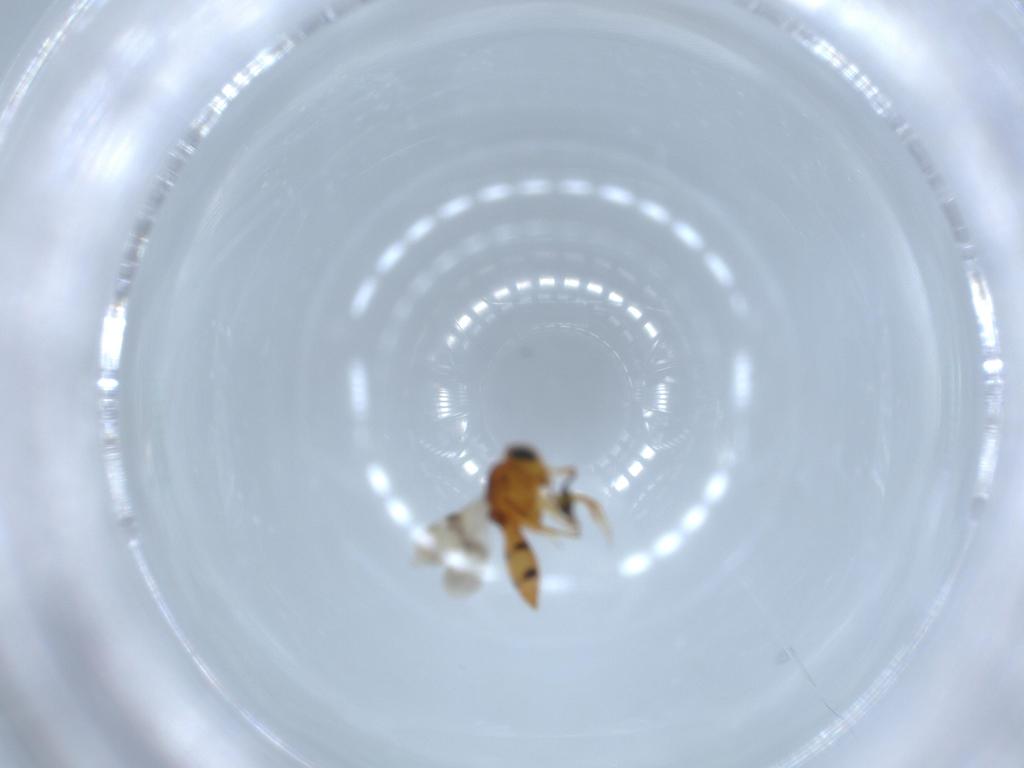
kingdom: Animalia
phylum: Arthropoda
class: Insecta
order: Hymenoptera
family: Scelionidae
